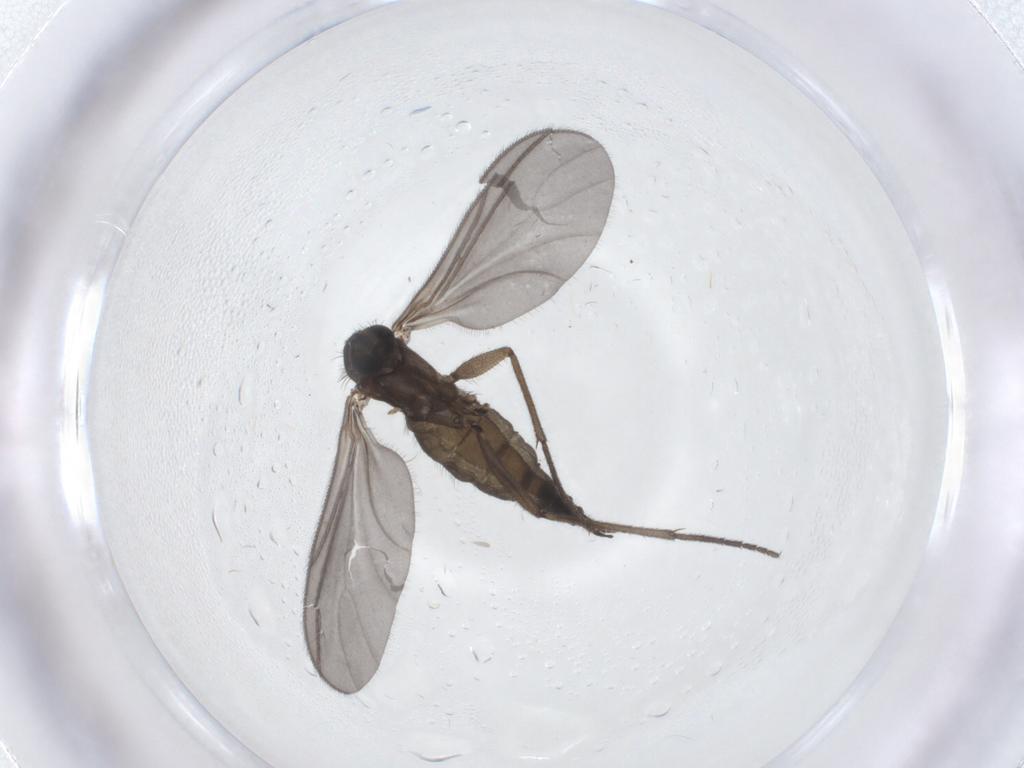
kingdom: Animalia
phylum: Arthropoda
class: Insecta
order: Diptera
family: Sciaridae
